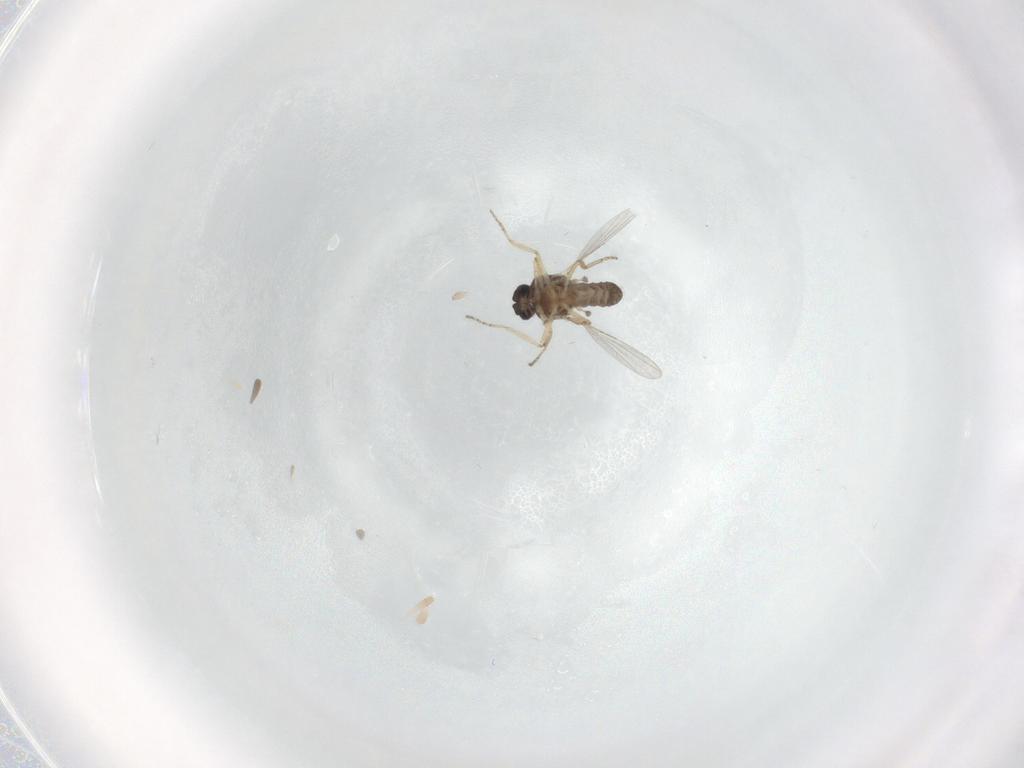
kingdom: Animalia
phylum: Arthropoda
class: Insecta
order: Diptera
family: Ceratopogonidae
